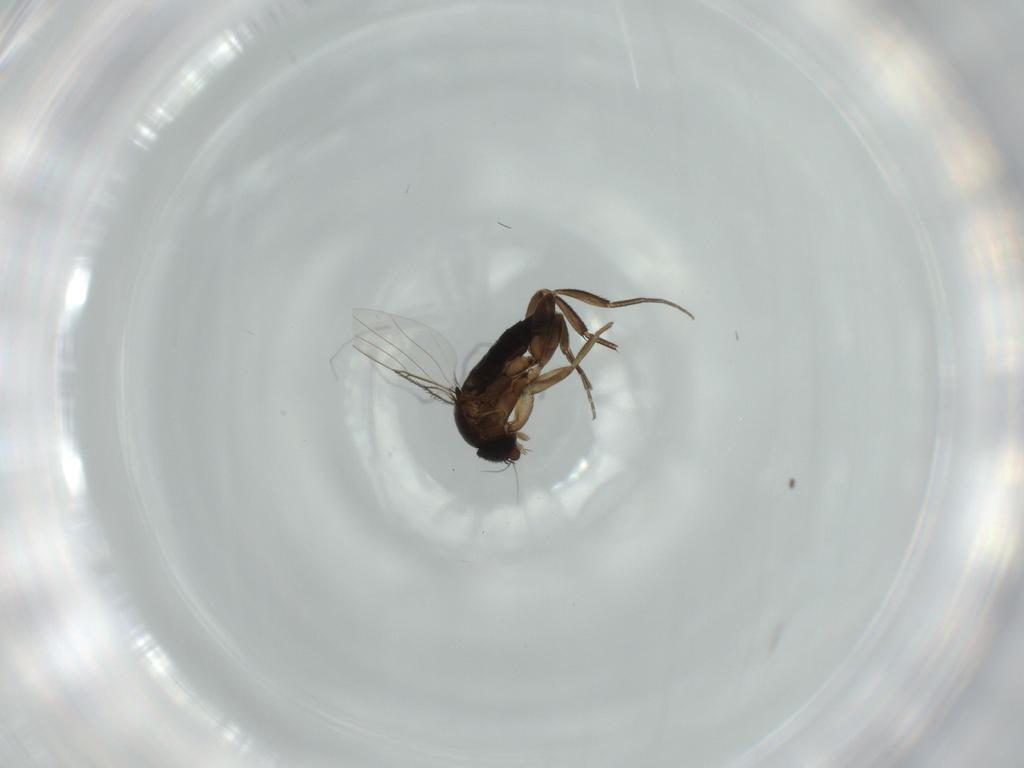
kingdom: Animalia
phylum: Arthropoda
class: Insecta
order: Diptera
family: Phoridae
